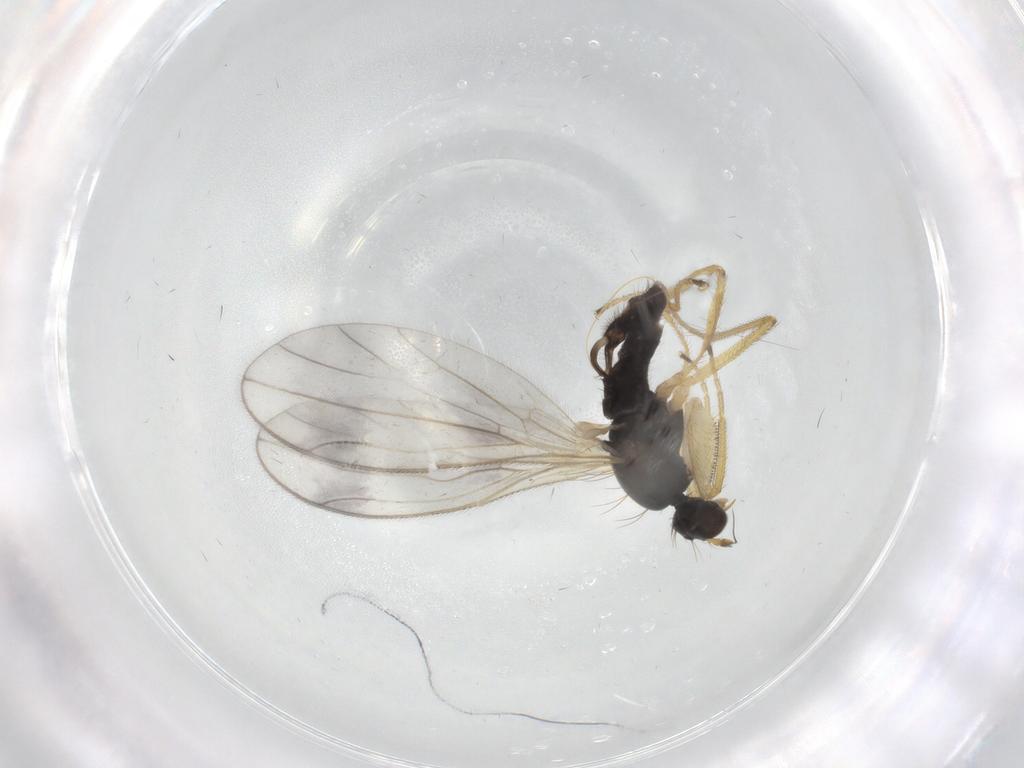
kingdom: Animalia
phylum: Arthropoda
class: Insecta
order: Diptera
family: Empididae
